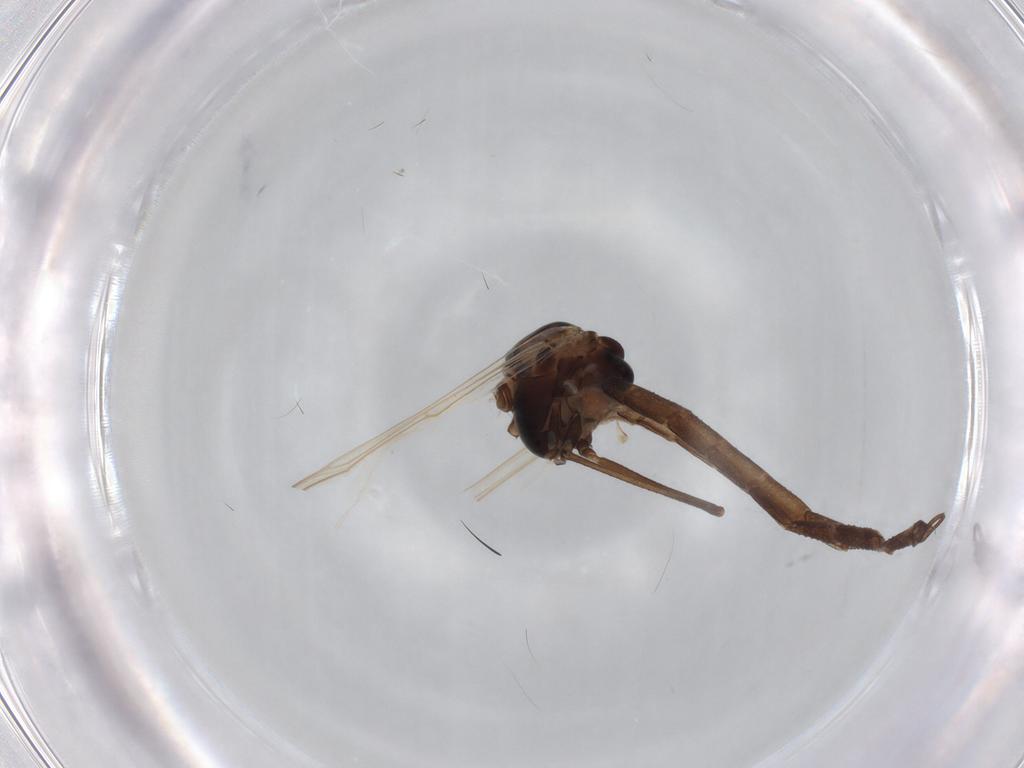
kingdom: Animalia
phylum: Arthropoda
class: Insecta
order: Diptera
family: Chironomidae
